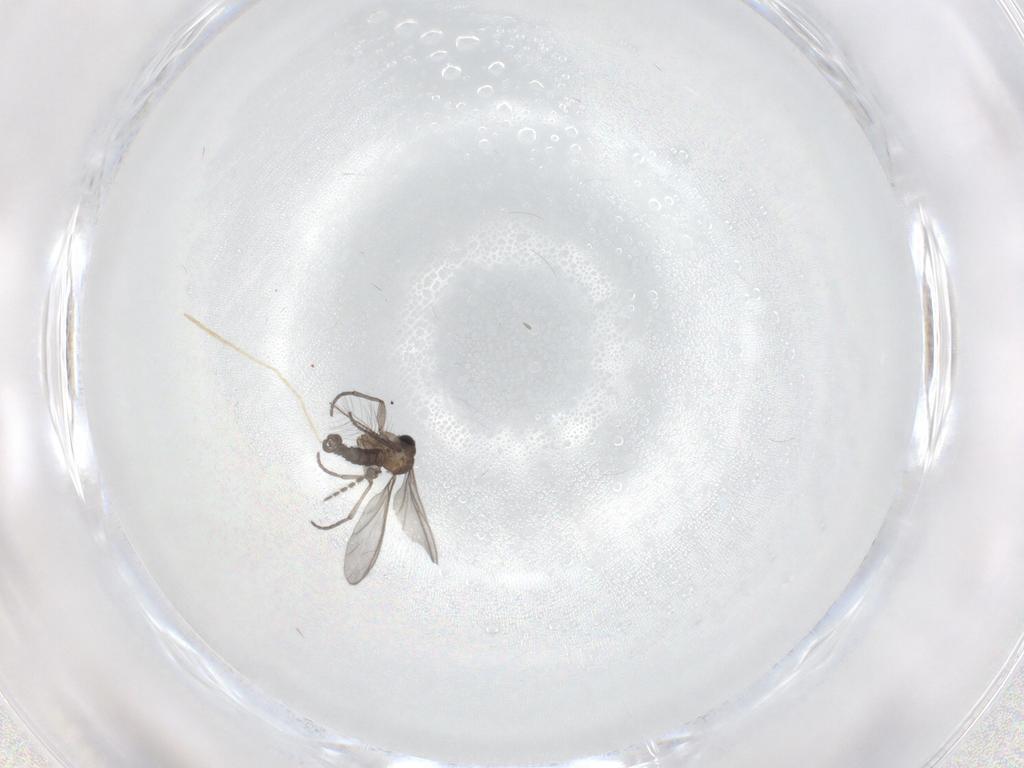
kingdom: Animalia
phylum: Arthropoda
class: Insecta
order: Diptera
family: Sciaridae
